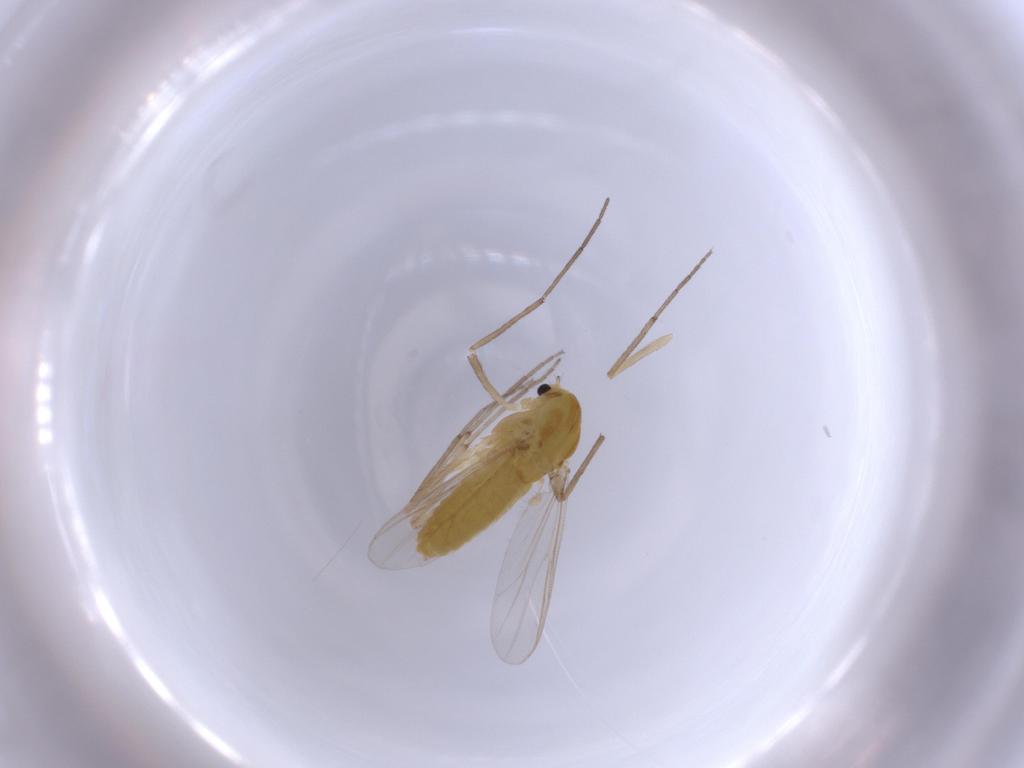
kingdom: Animalia
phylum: Arthropoda
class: Insecta
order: Diptera
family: Chironomidae
